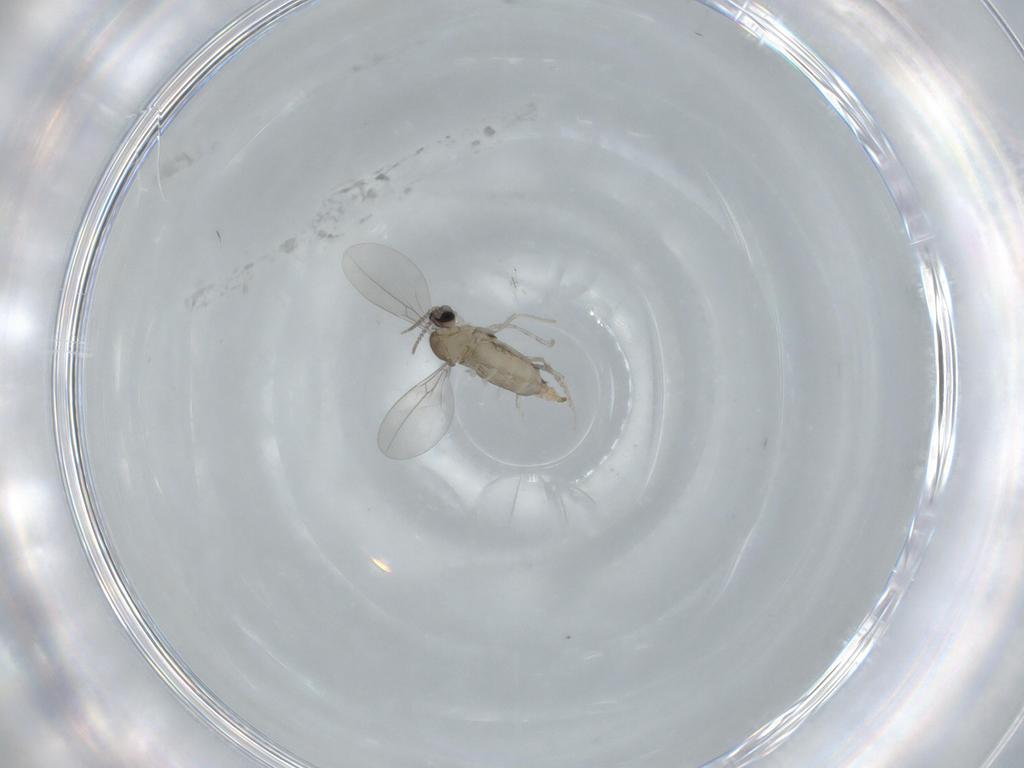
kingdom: Animalia
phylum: Arthropoda
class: Insecta
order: Diptera
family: Cecidomyiidae
